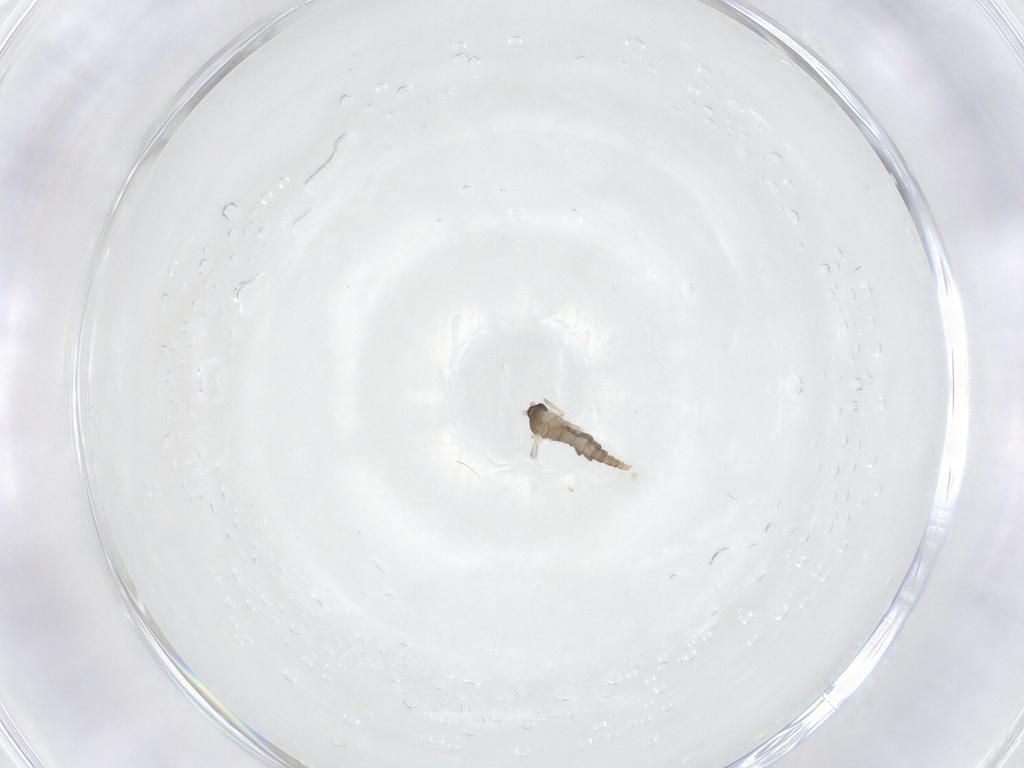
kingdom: Animalia
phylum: Arthropoda
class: Insecta
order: Diptera
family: Cecidomyiidae
